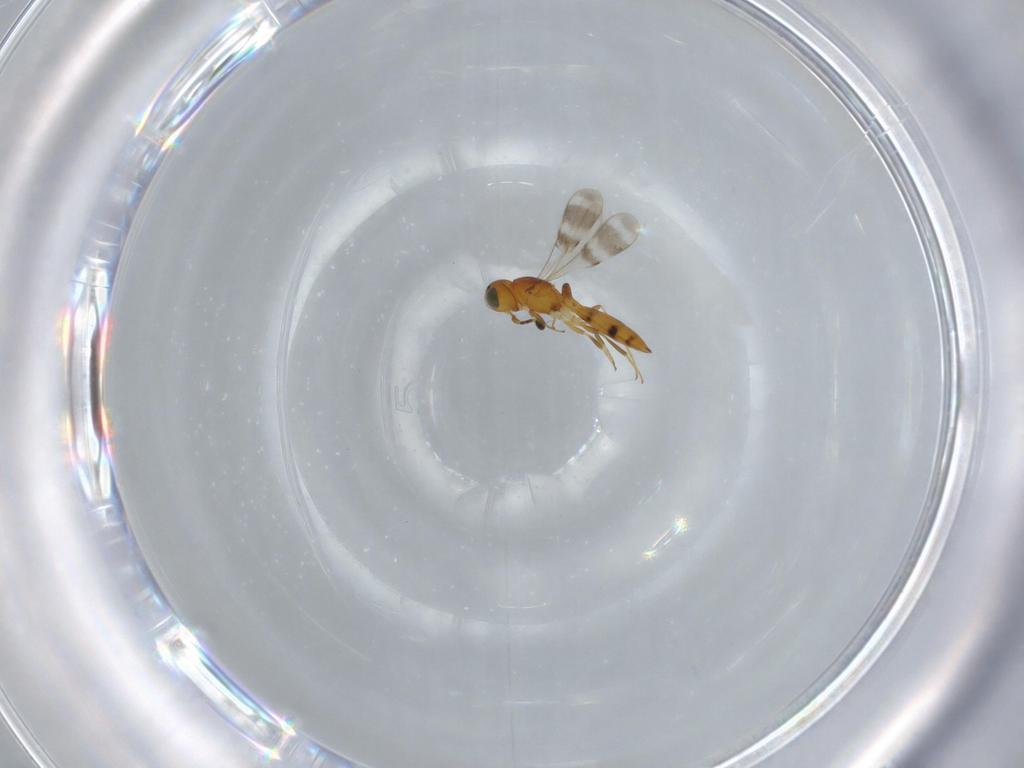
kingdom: Animalia
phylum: Arthropoda
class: Insecta
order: Hymenoptera
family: Scelionidae
